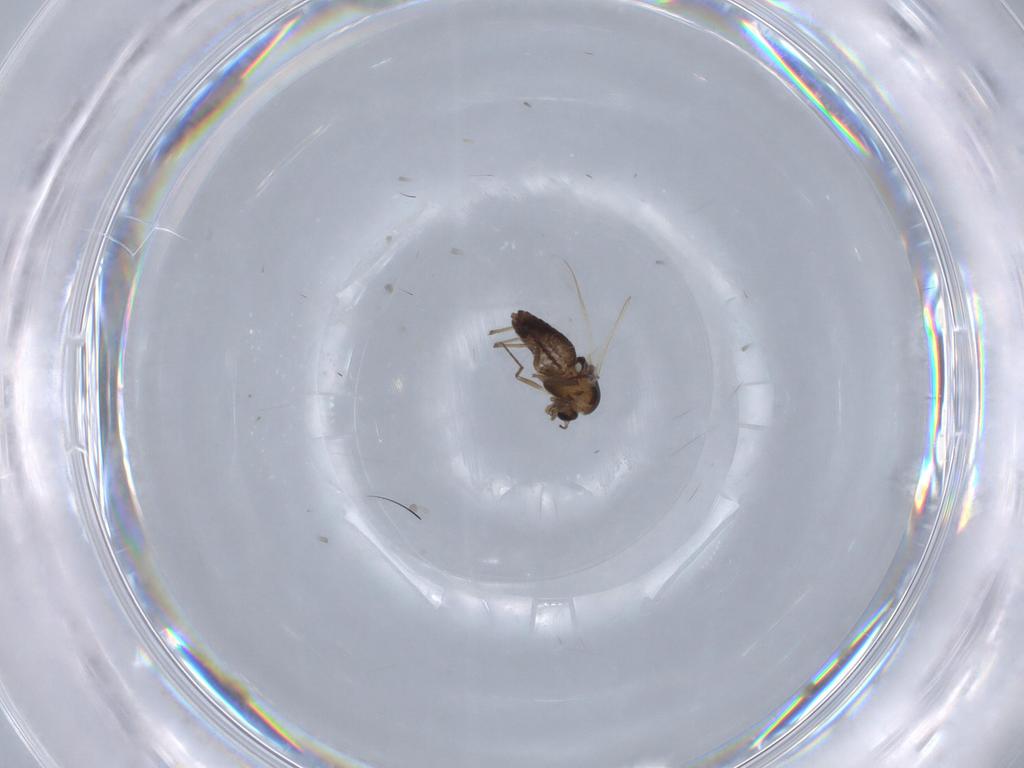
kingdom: Animalia
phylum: Arthropoda
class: Insecta
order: Diptera
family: Chironomidae
